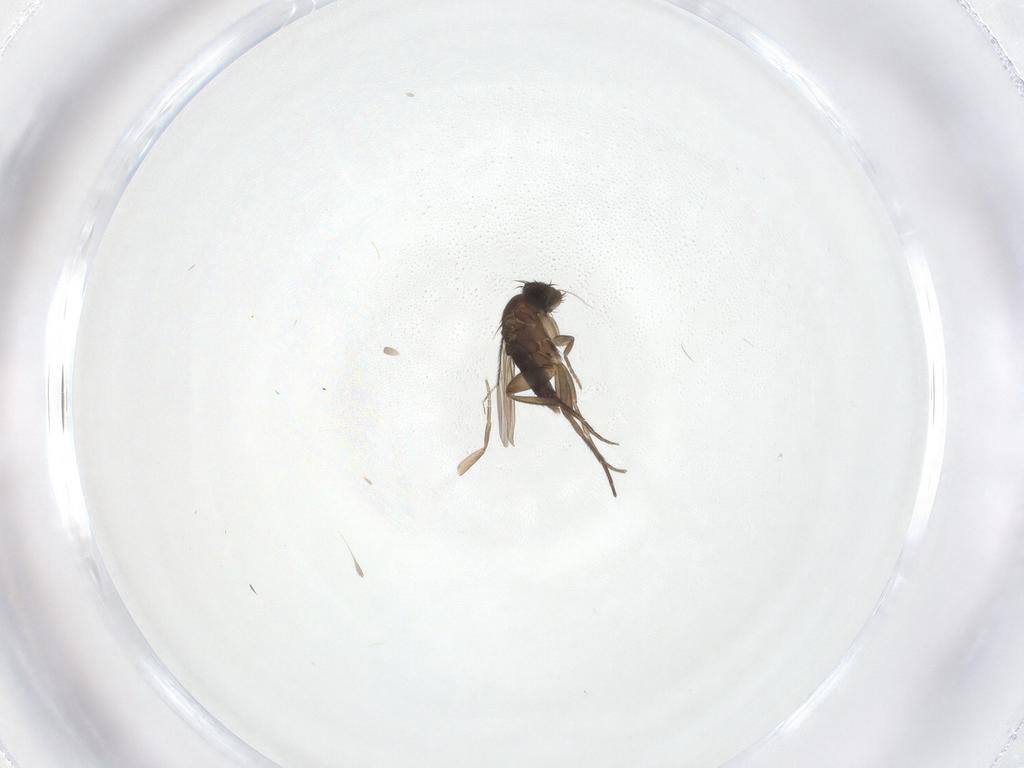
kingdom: Animalia
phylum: Arthropoda
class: Insecta
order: Diptera
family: Phoridae
